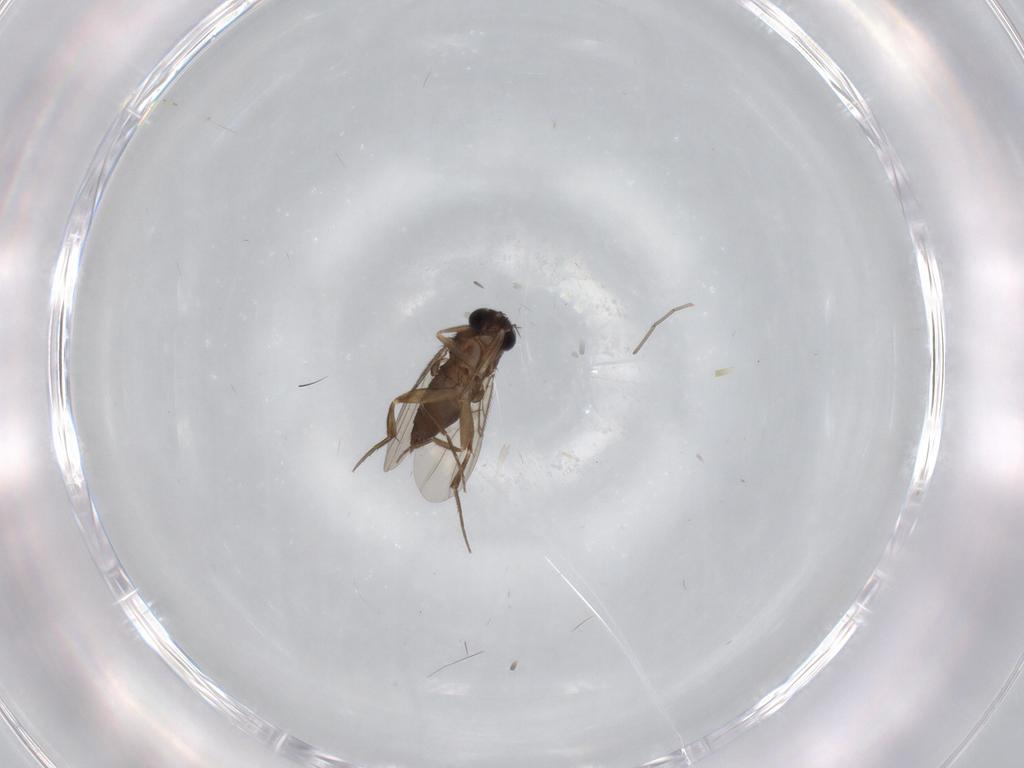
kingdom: Animalia
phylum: Arthropoda
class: Insecta
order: Diptera
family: Phoridae
